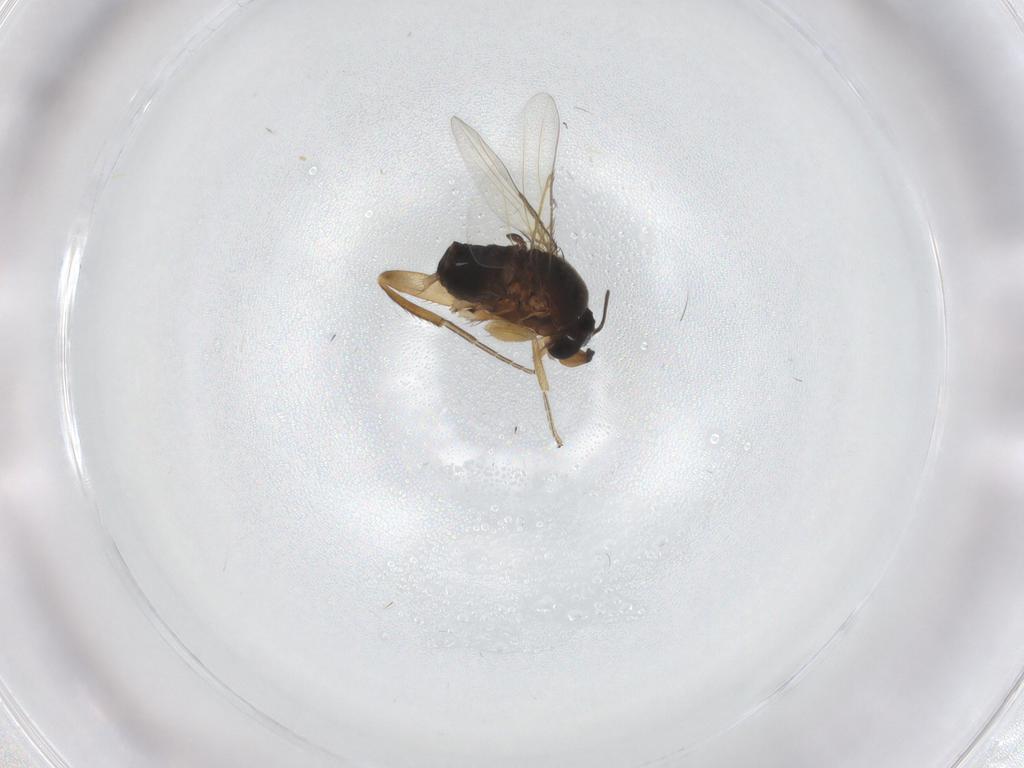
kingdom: Animalia
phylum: Arthropoda
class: Insecta
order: Diptera
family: Phoridae
